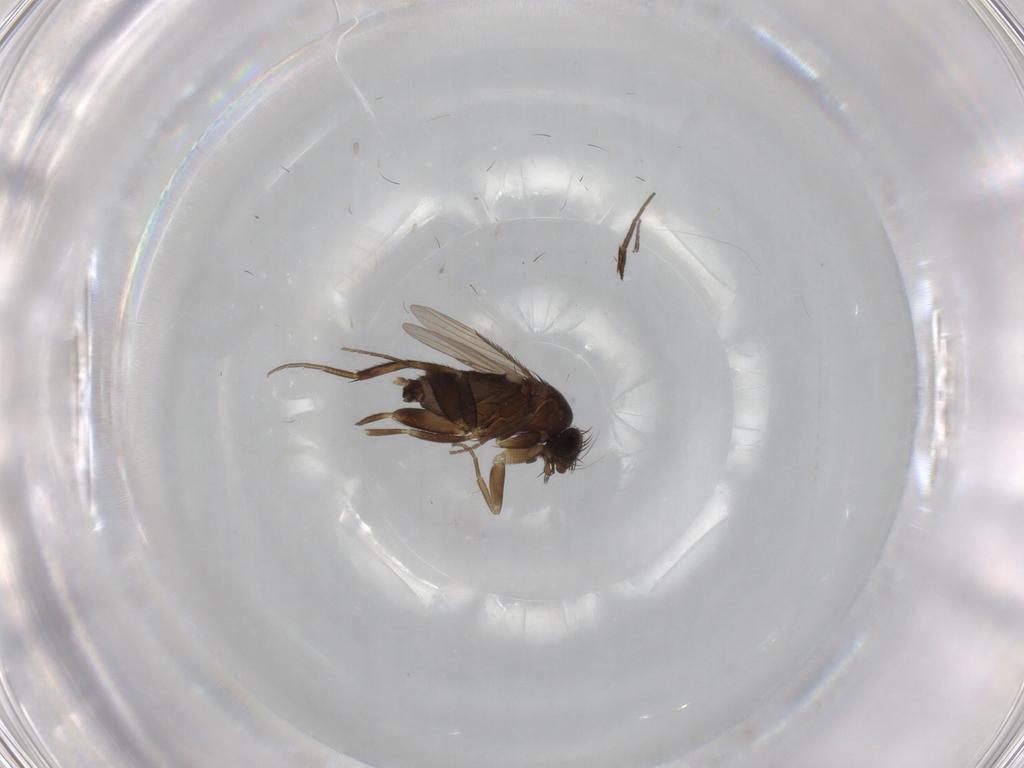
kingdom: Animalia
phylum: Arthropoda
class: Insecta
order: Diptera
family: Phoridae
